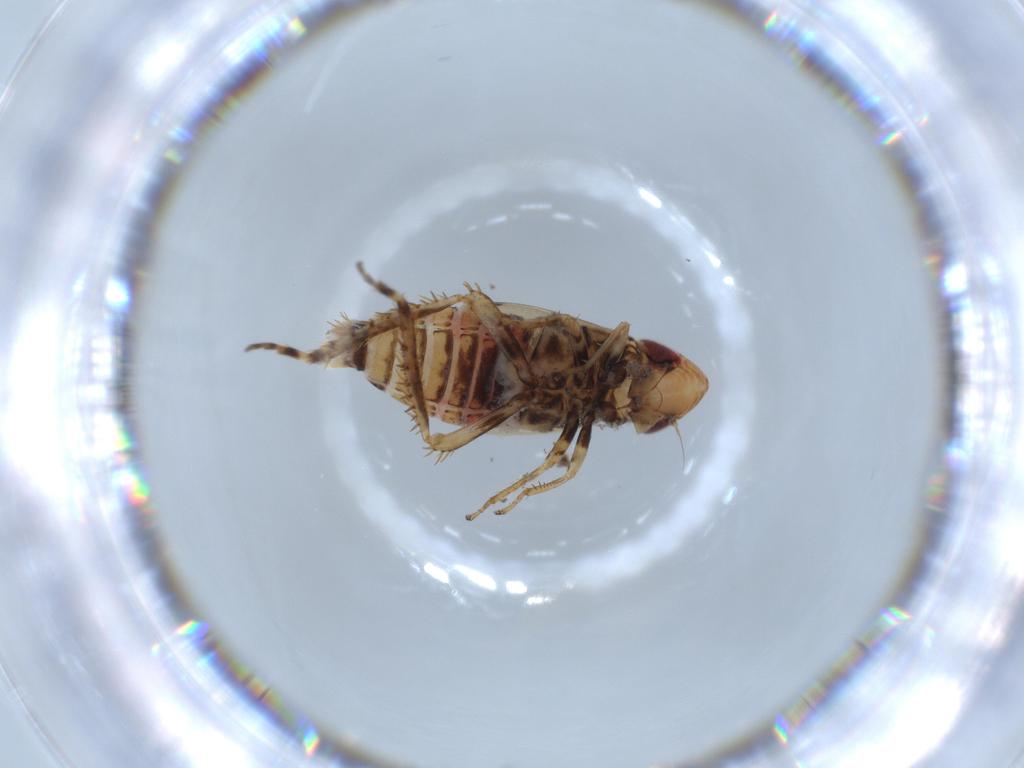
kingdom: Animalia
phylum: Arthropoda
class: Insecta
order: Hemiptera
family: Cicadellidae
